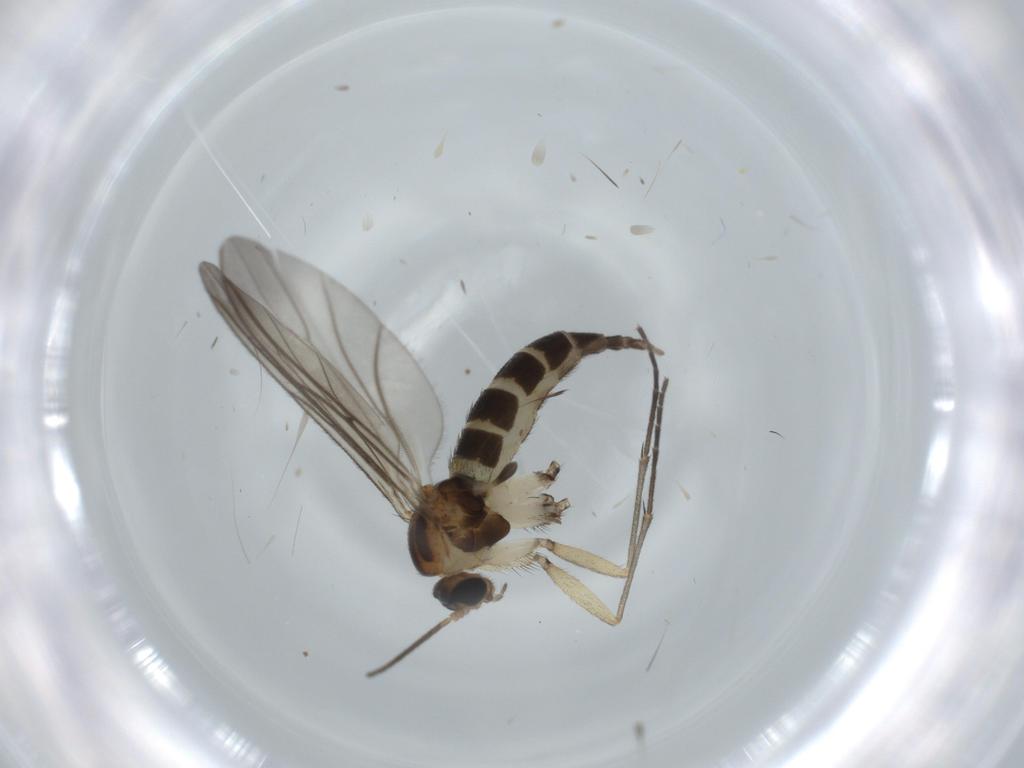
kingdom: Animalia
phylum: Arthropoda
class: Insecta
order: Diptera
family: Sciaridae
